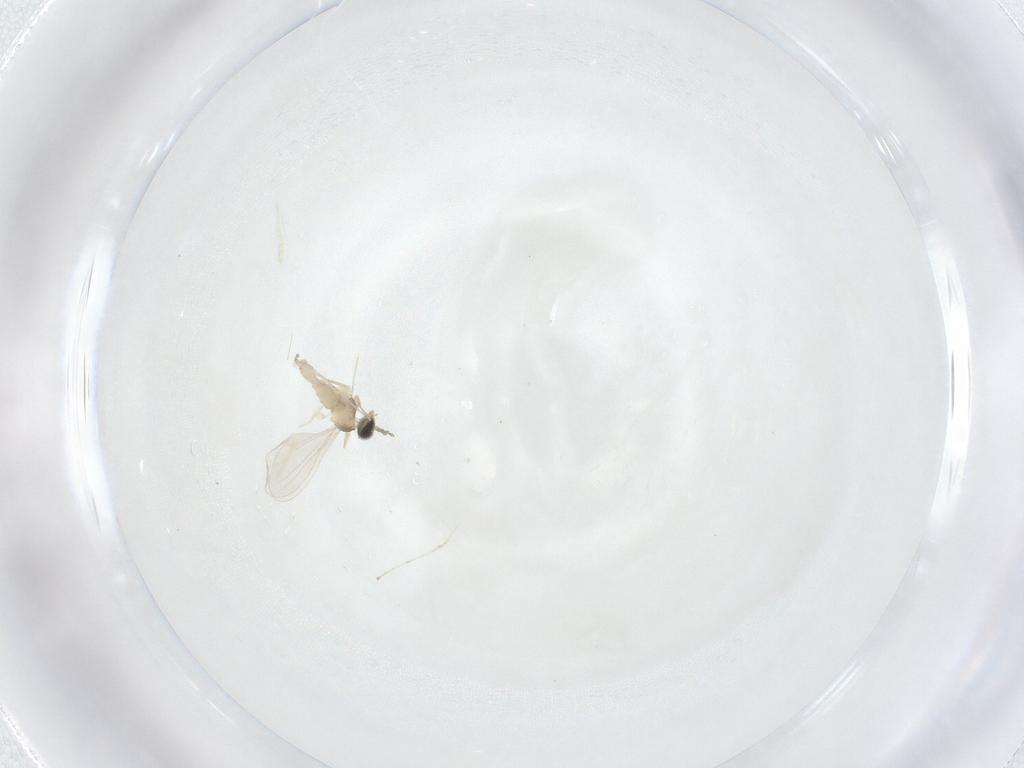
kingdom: Animalia
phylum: Arthropoda
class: Insecta
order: Diptera
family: Cecidomyiidae
